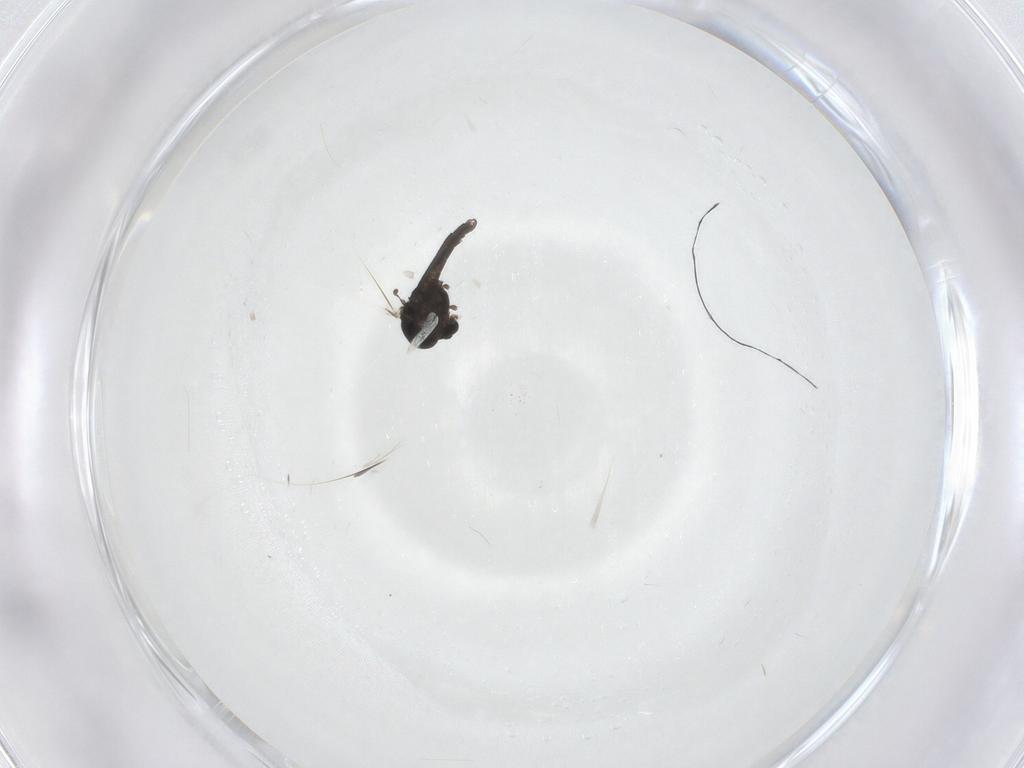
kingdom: Animalia
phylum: Arthropoda
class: Insecta
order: Diptera
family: Chironomidae
